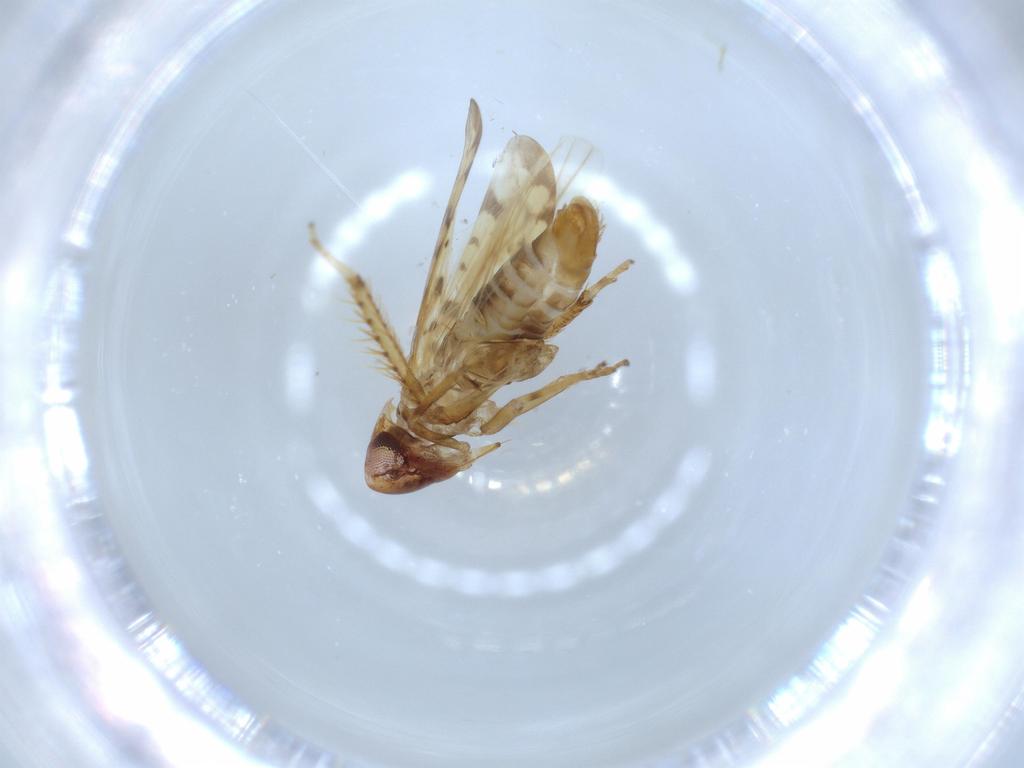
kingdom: Animalia
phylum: Arthropoda
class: Insecta
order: Hemiptera
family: Cicadellidae
